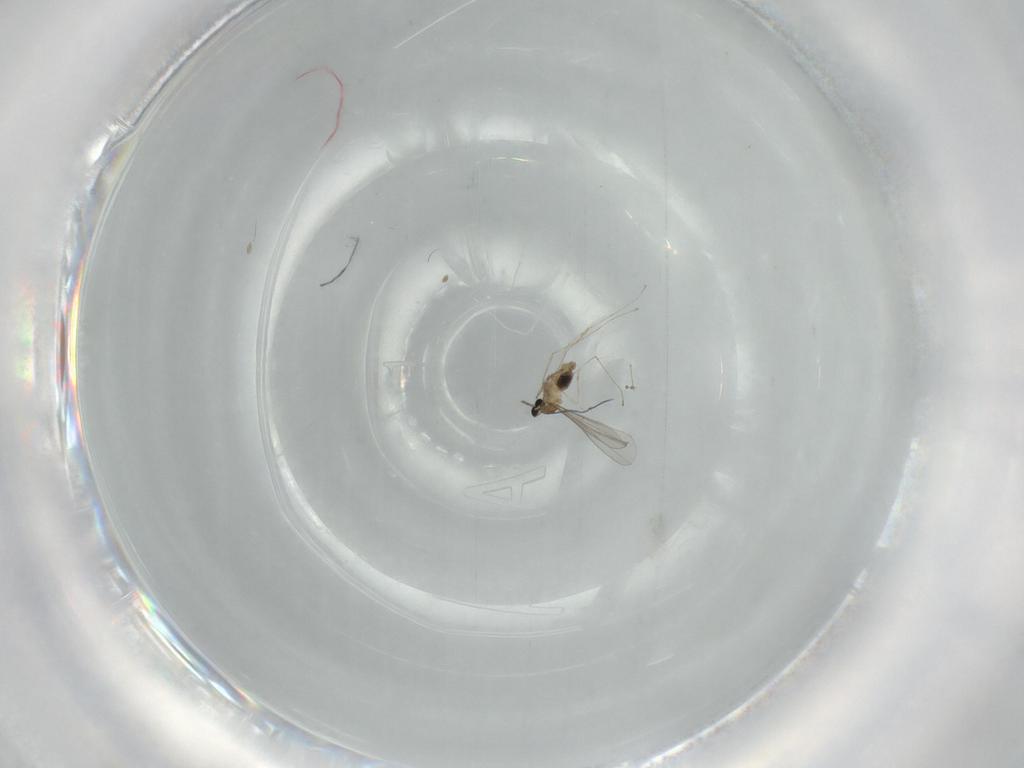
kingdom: Animalia
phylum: Arthropoda
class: Insecta
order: Diptera
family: Cecidomyiidae
